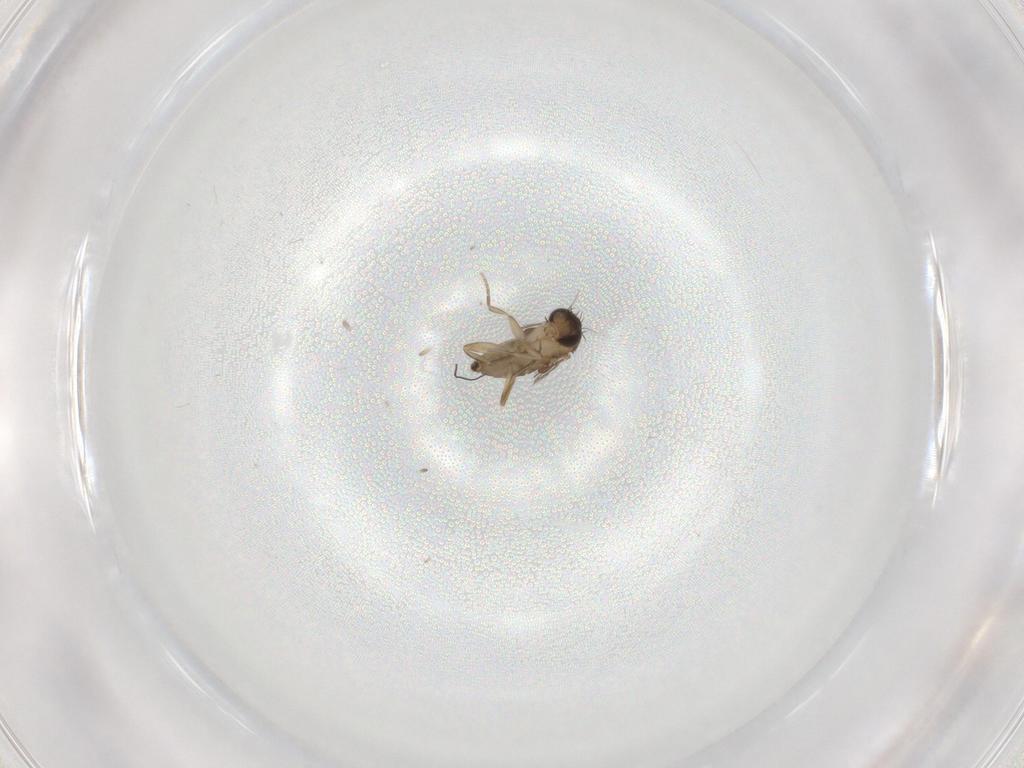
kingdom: Animalia
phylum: Arthropoda
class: Insecta
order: Diptera
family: Phoridae
